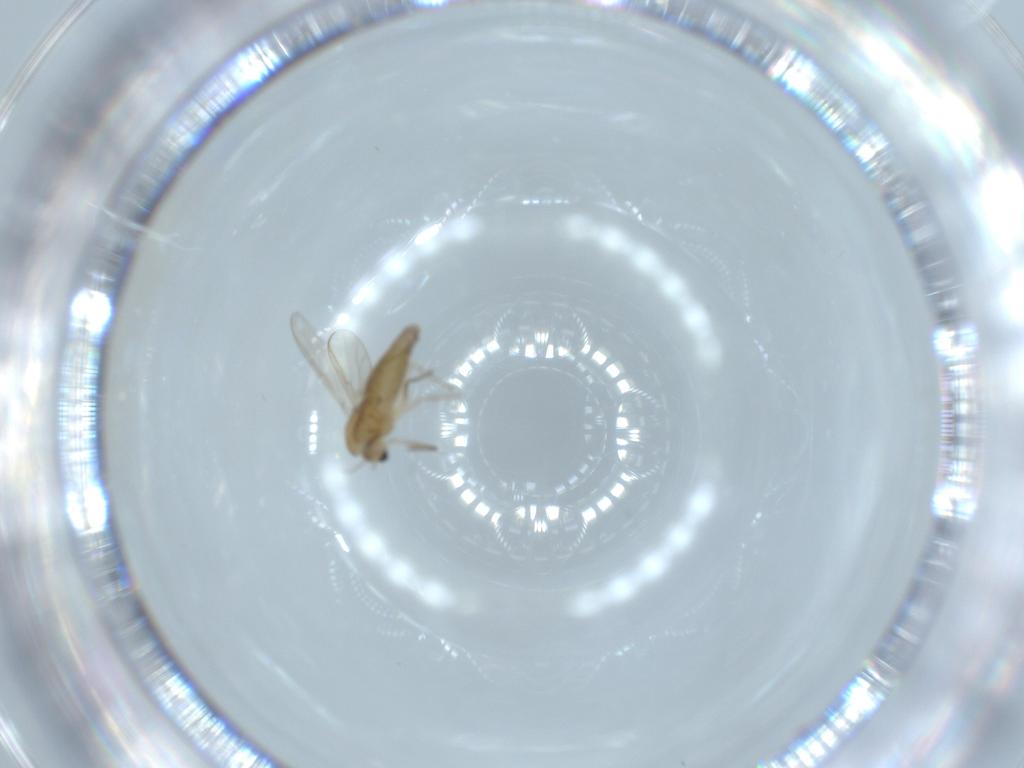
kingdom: Animalia
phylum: Arthropoda
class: Insecta
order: Diptera
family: Chironomidae
